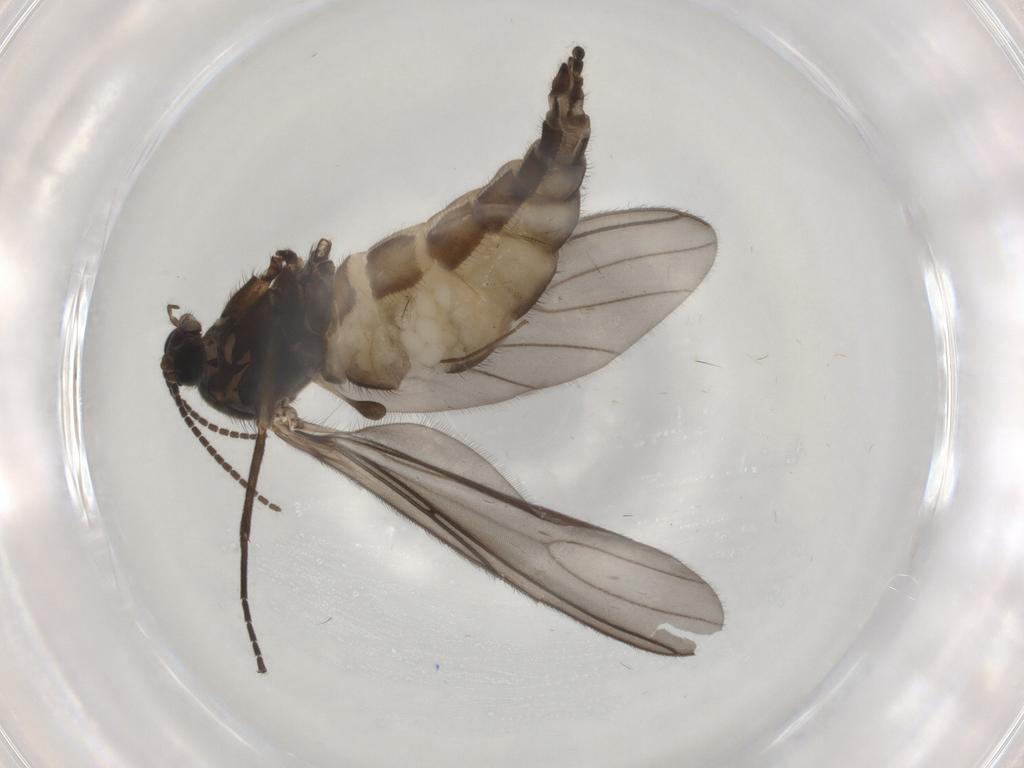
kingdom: Animalia
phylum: Arthropoda
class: Insecta
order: Diptera
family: Sciaridae
